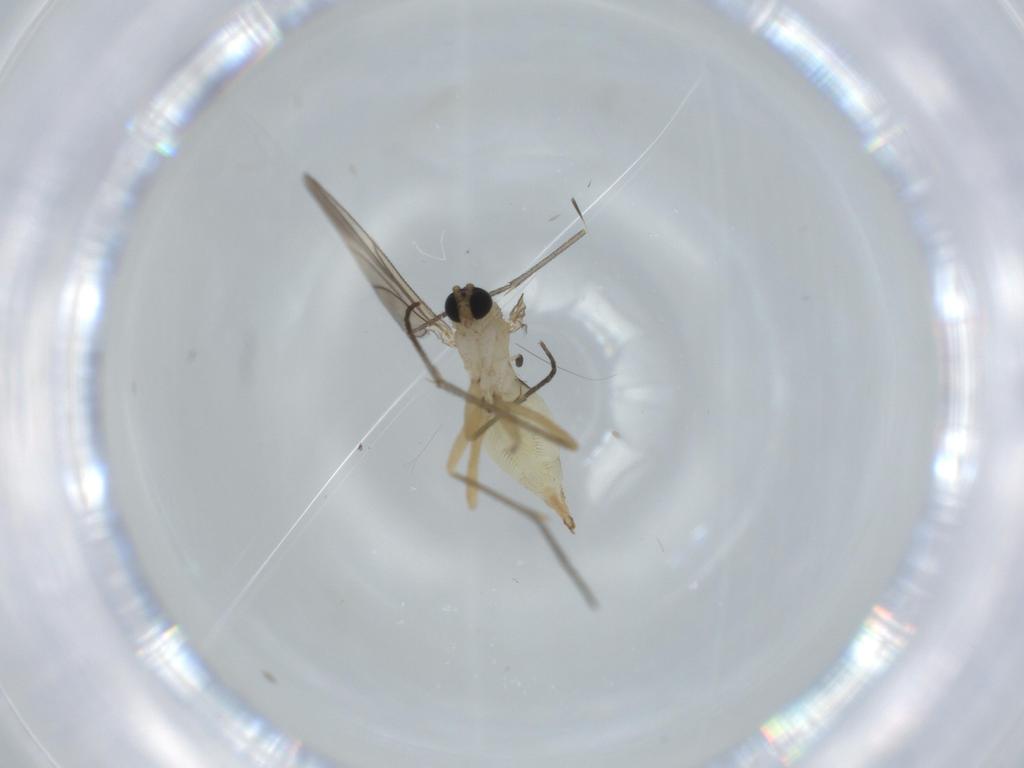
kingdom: Animalia
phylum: Arthropoda
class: Insecta
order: Diptera
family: Sciaridae
